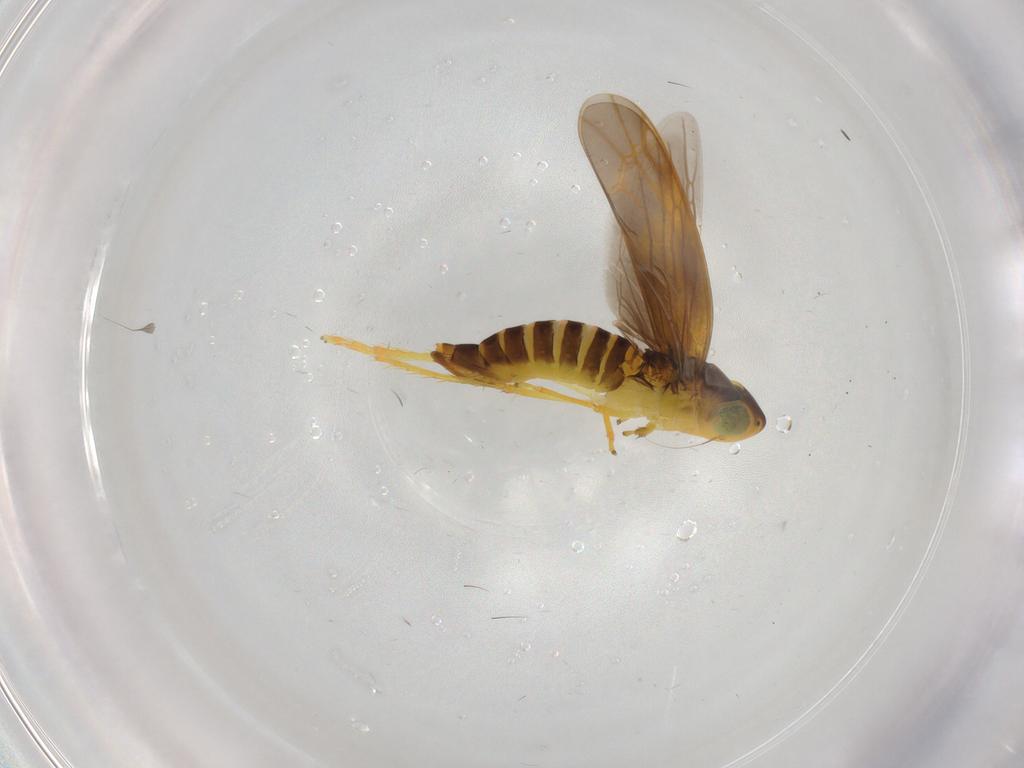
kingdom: Animalia
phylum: Arthropoda
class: Insecta
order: Hemiptera
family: Cicadellidae
